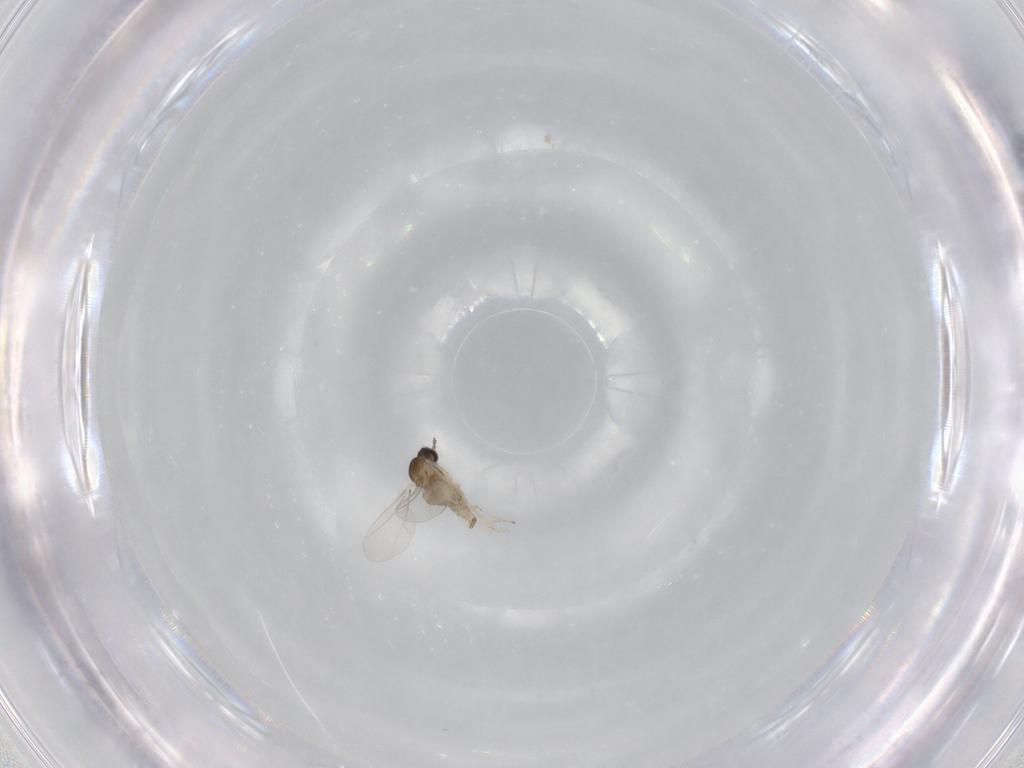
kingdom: Animalia
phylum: Arthropoda
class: Insecta
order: Diptera
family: Cecidomyiidae
